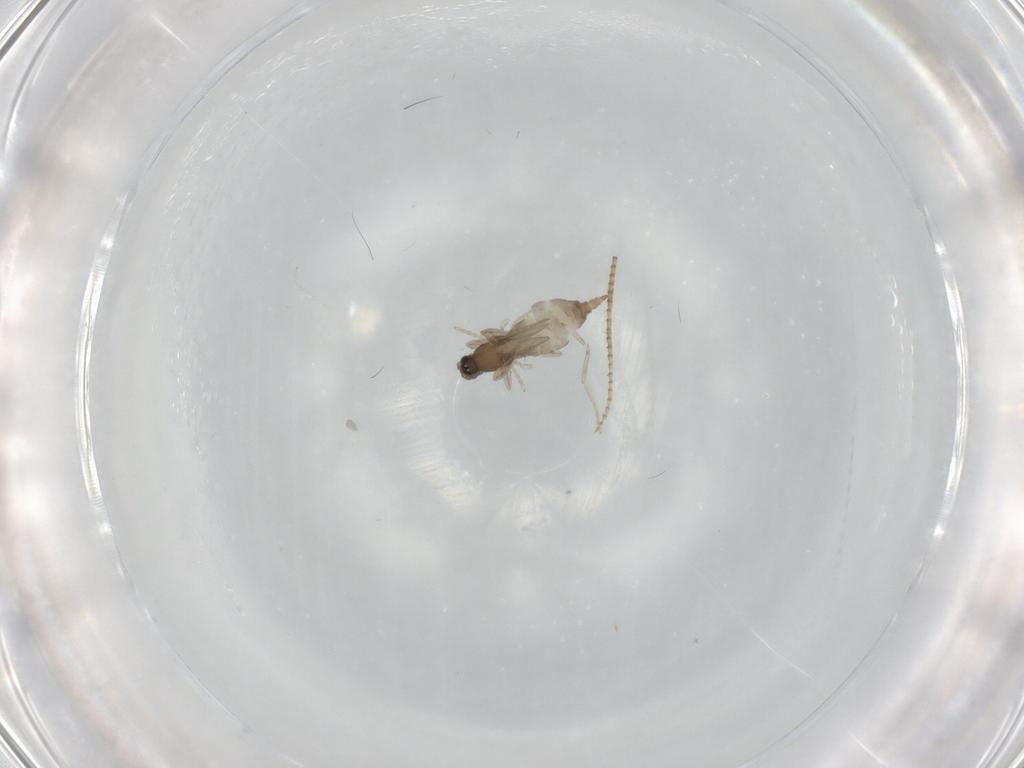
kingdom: Animalia
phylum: Arthropoda
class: Insecta
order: Diptera
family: Cecidomyiidae
